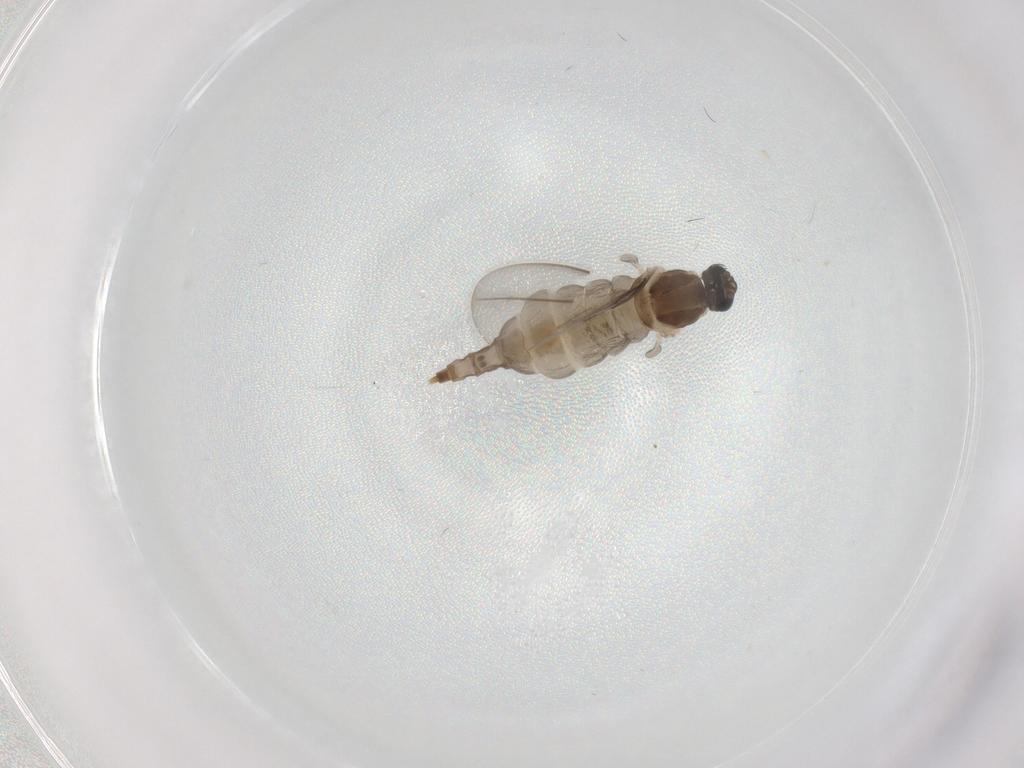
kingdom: Animalia
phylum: Arthropoda
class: Insecta
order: Diptera
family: Cecidomyiidae
